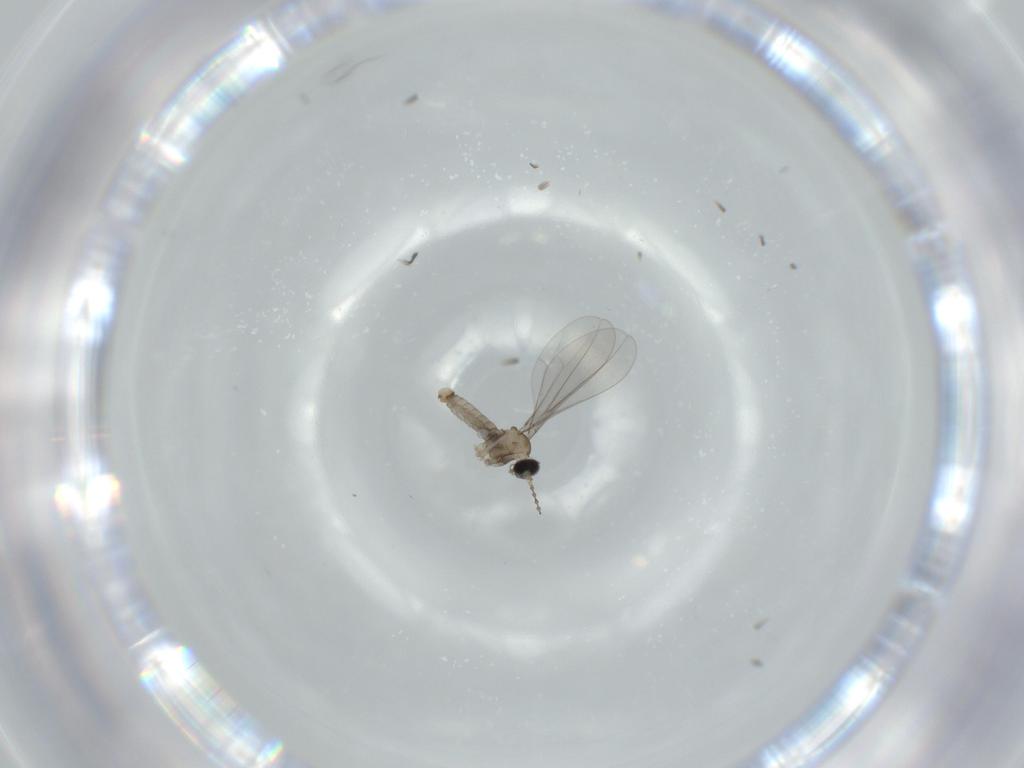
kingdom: Animalia
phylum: Arthropoda
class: Insecta
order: Diptera
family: Cecidomyiidae
